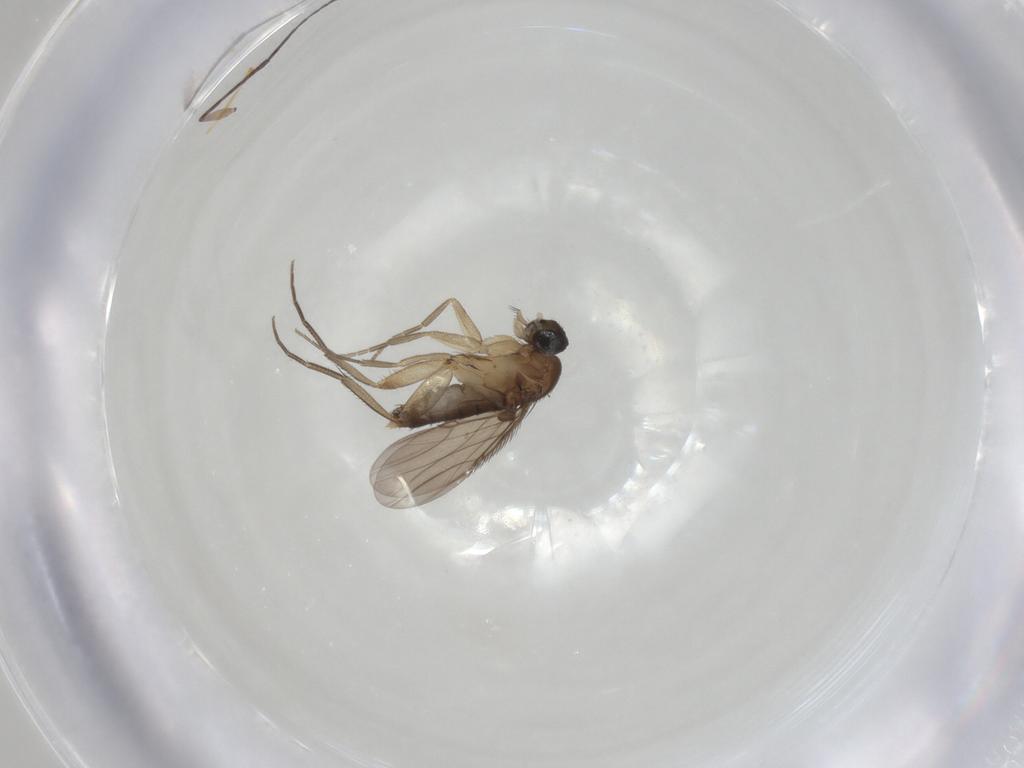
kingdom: Animalia
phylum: Arthropoda
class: Insecta
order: Diptera
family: Phoridae
